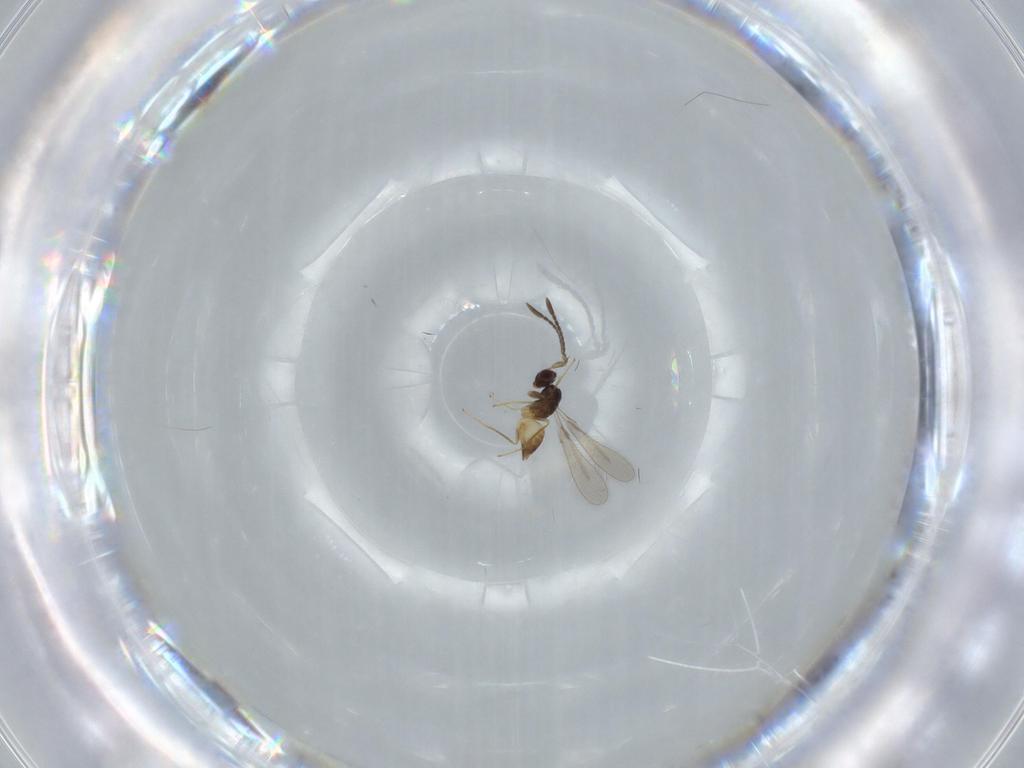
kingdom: Animalia
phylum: Arthropoda
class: Insecta
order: Hymenoptera
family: Mymaridae
